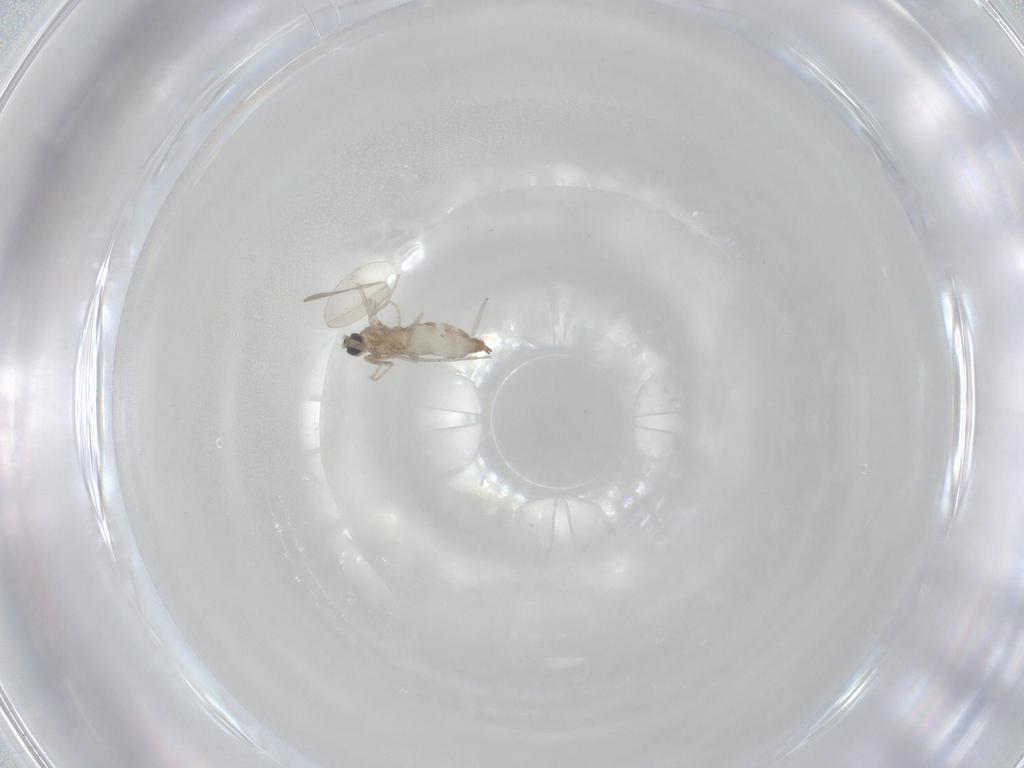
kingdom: Animalia
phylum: Arthropoda
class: Insecta
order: Diptera
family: Cecidomyiidae
